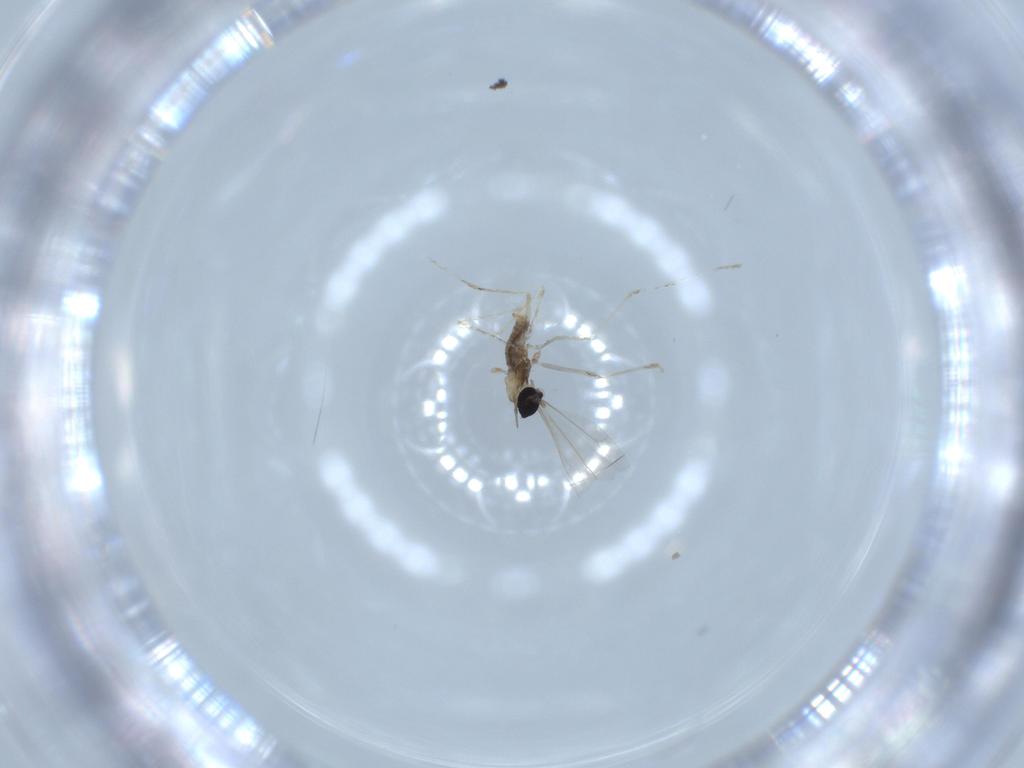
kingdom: Animalia
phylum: Arthropoda
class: Insecta
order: Diptera
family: Cecidomyiidae
